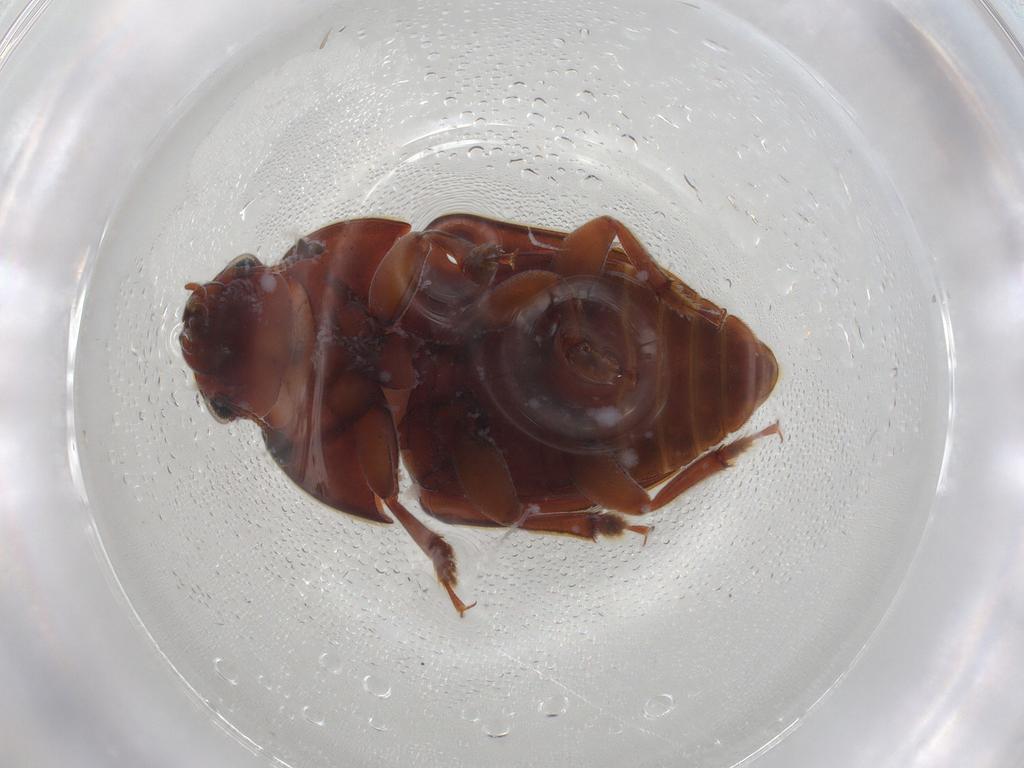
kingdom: Animalia
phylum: Arthropoda
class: Insecta
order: Coleoptera
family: Nitidulidae
